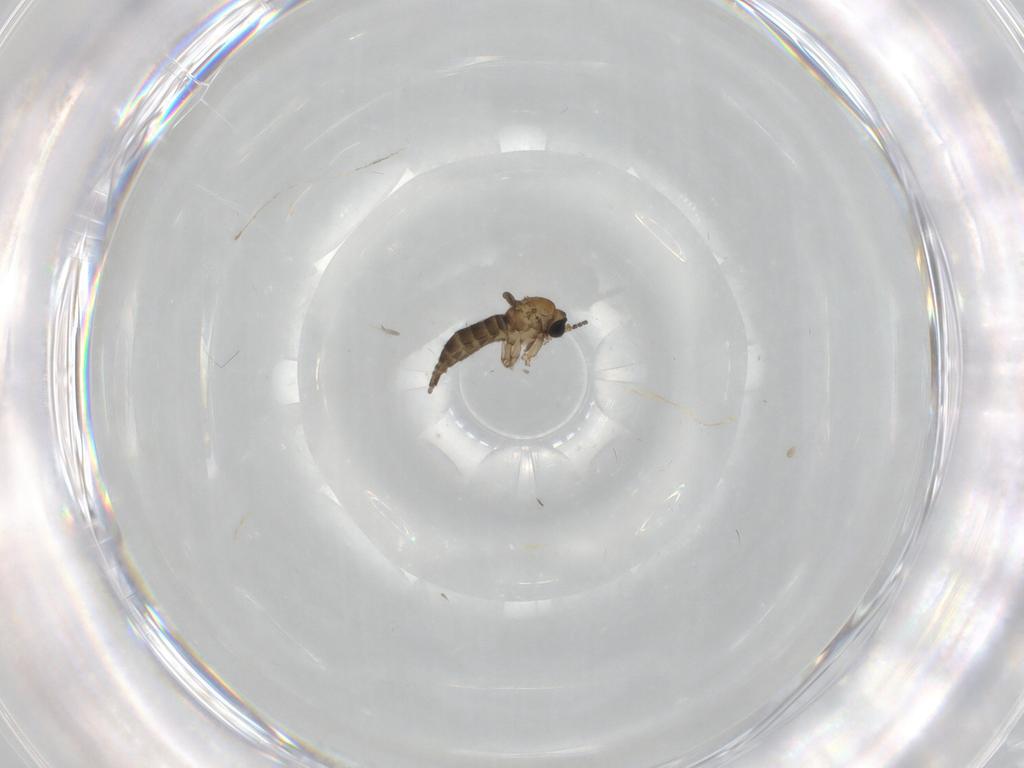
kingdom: Animalia
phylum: Arthropoda
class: Insecta
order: Diptera
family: Sciaridae
